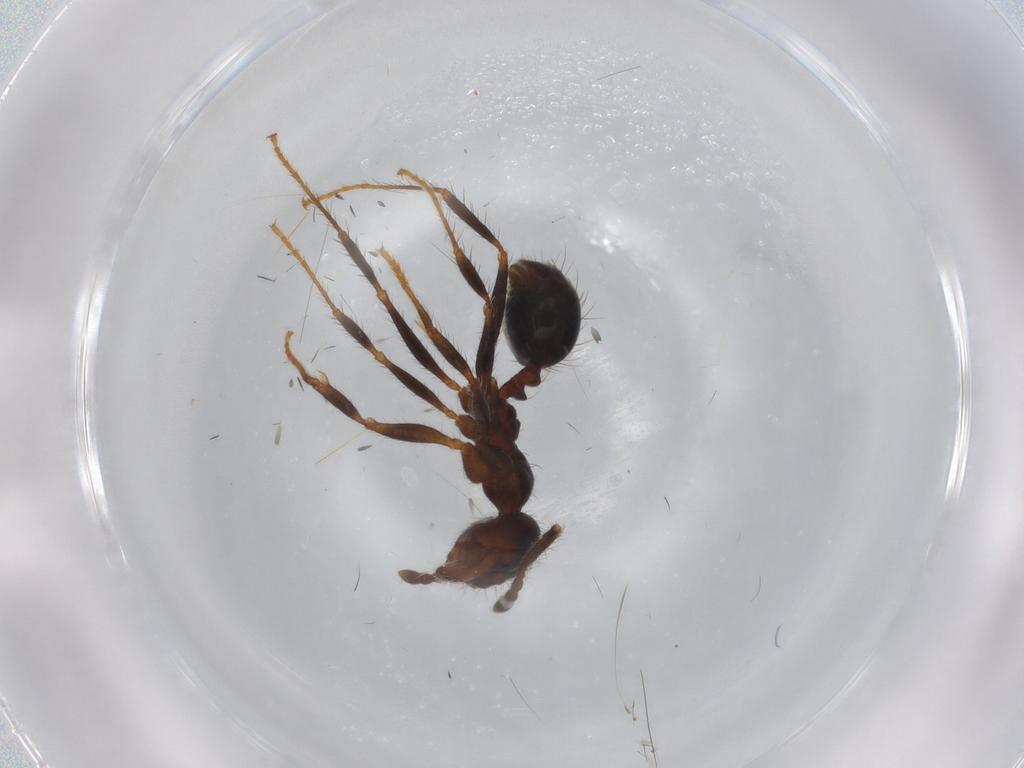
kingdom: Animalia
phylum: Arthropoda
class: Insecta
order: Hymenoptera
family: Formicidae
